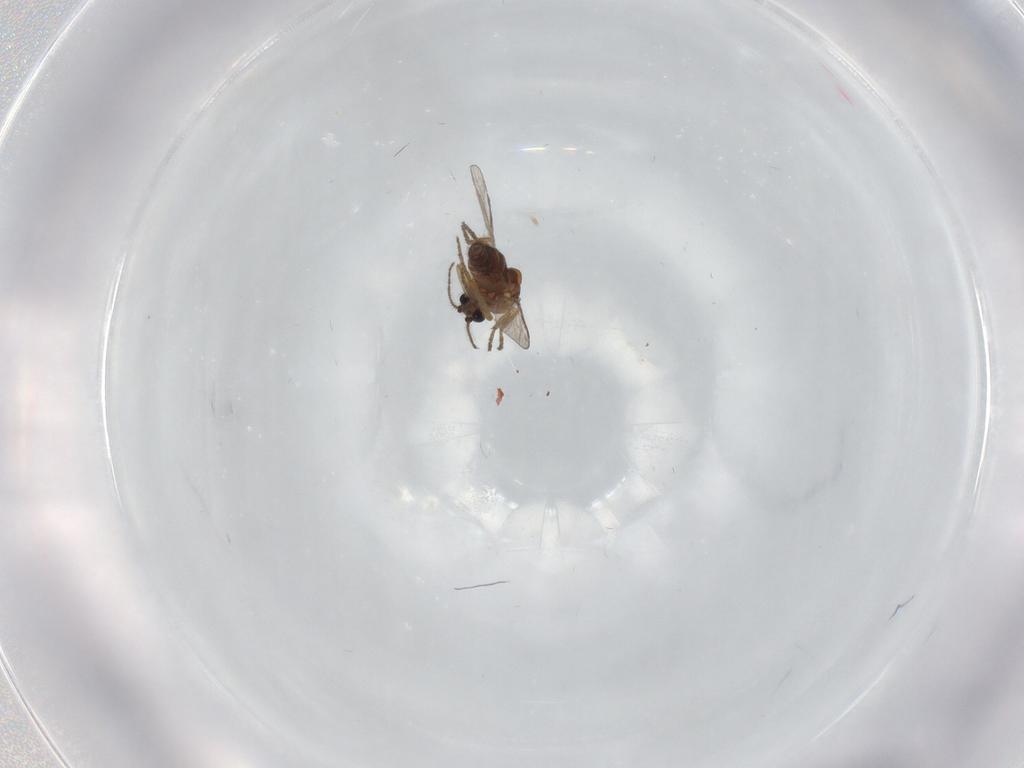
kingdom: Animalia
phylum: Arthropoda
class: Insecta
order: Diptera
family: Ceratopogonidae
